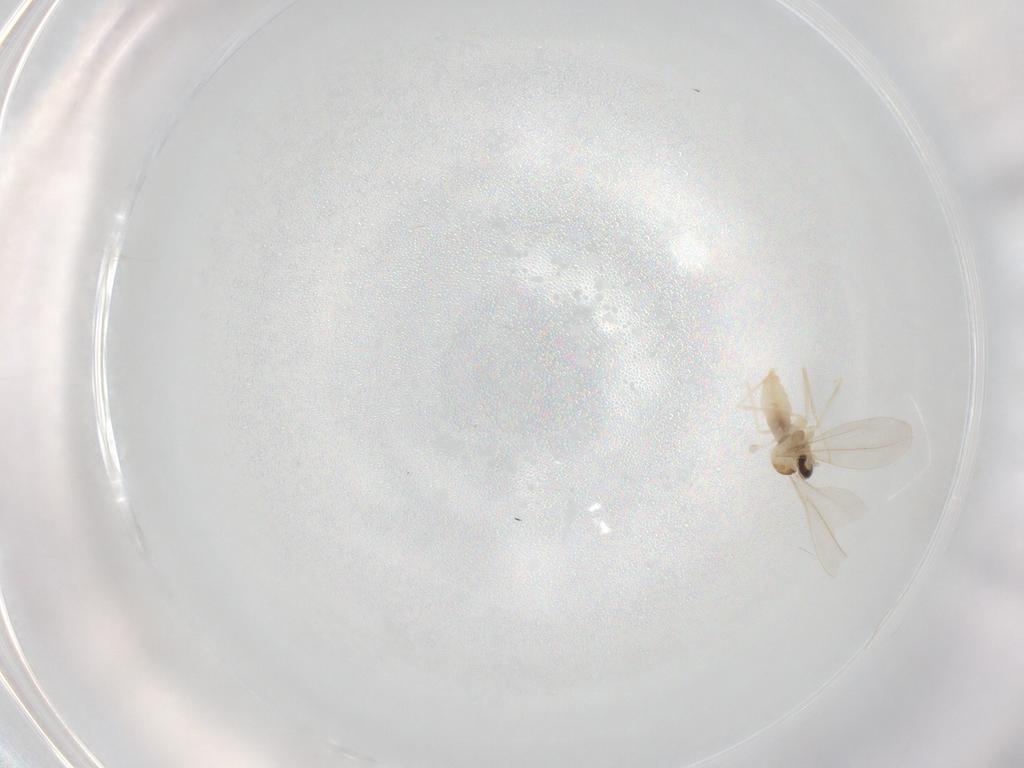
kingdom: Animalia
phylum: Arthropoda
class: Insecta
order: Diptera
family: Cecidomyiidae
